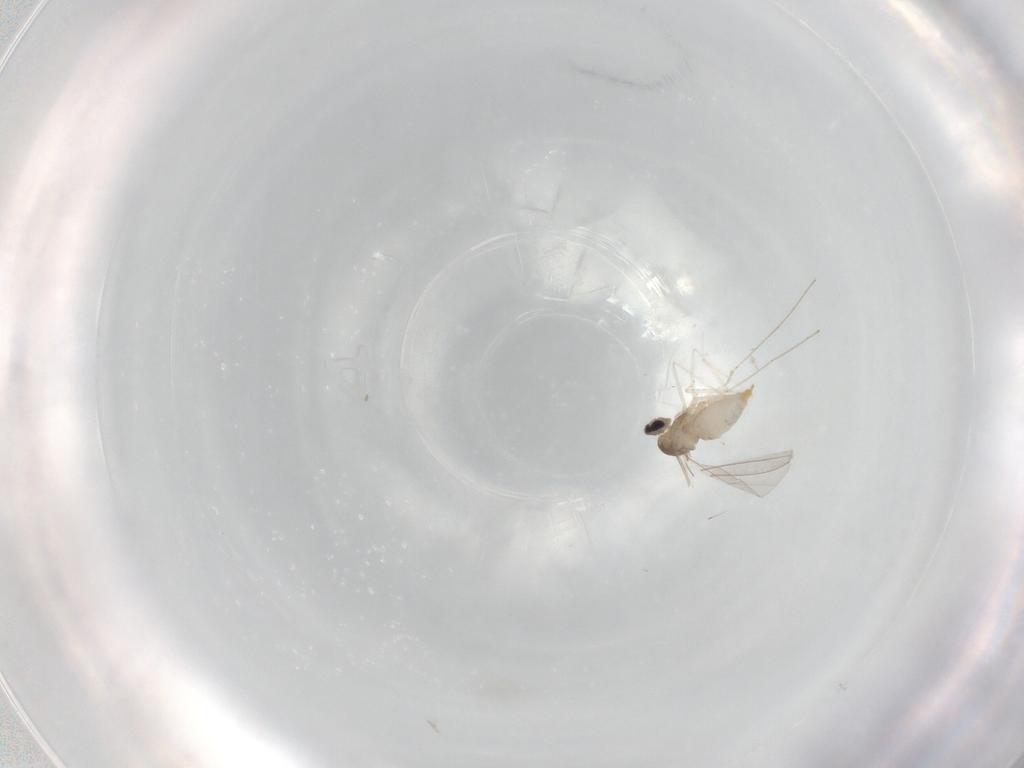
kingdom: Animalia
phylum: Arthropoda
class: Insecta
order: Diptera
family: Cecidomyiidae
